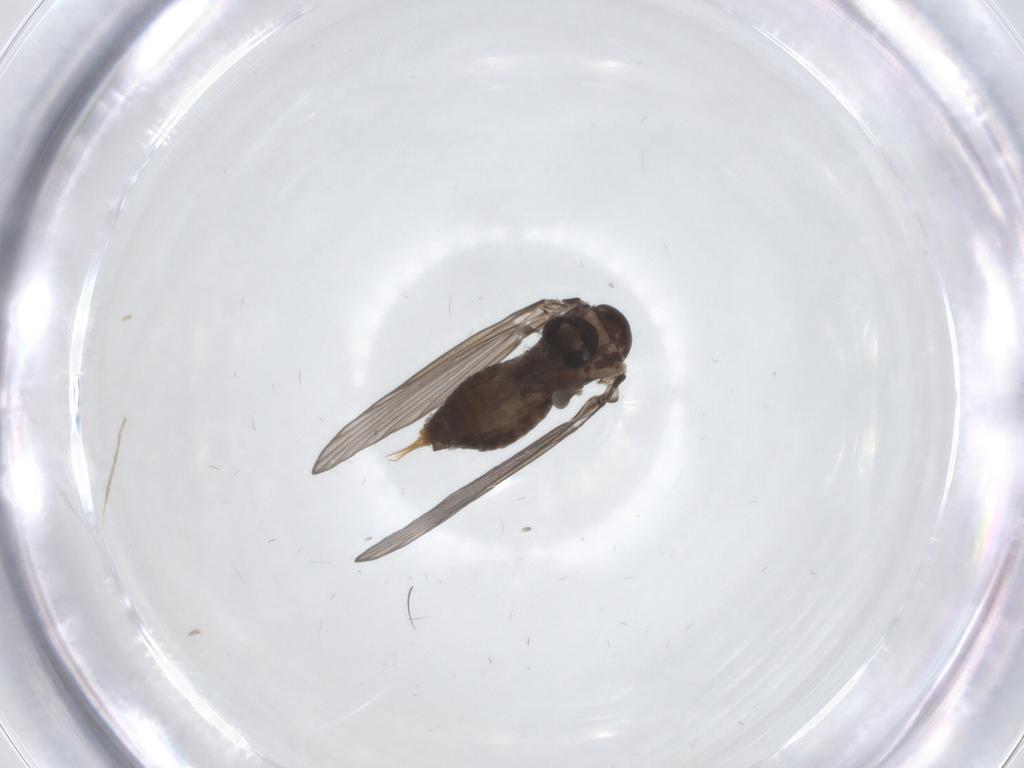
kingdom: Animalia
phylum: Arthropoda
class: Insecta
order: Diptera
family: Psychodidae
